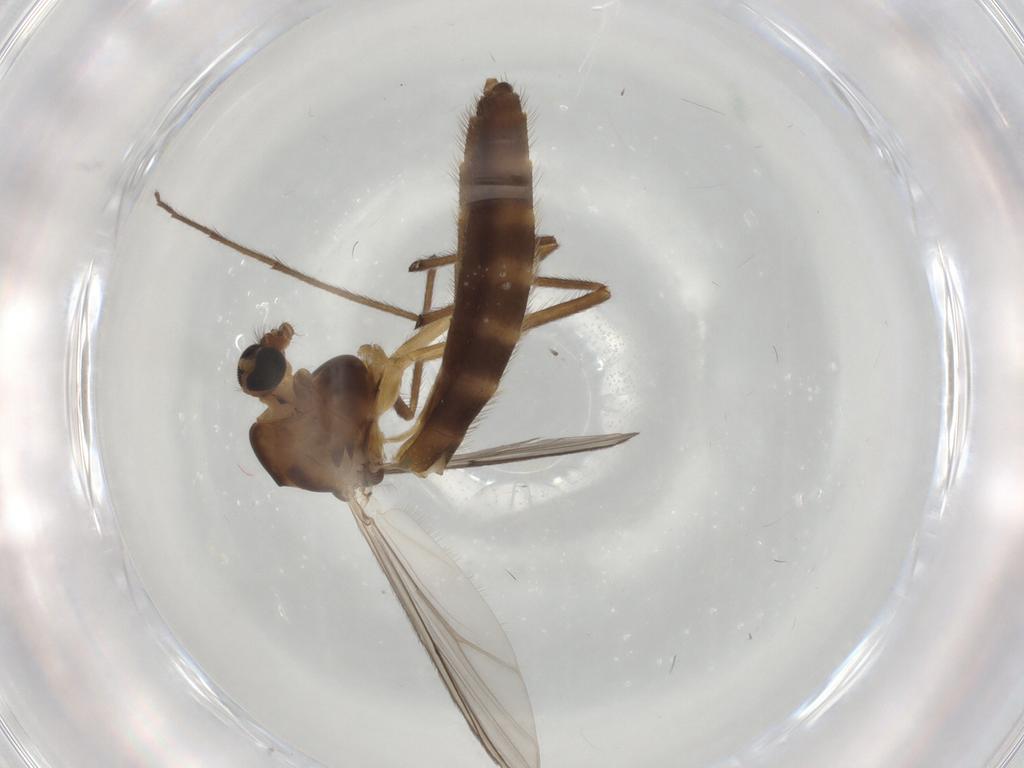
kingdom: Animalia
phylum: Arthropoda
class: Insecta
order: Diptera
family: Chironomidae
